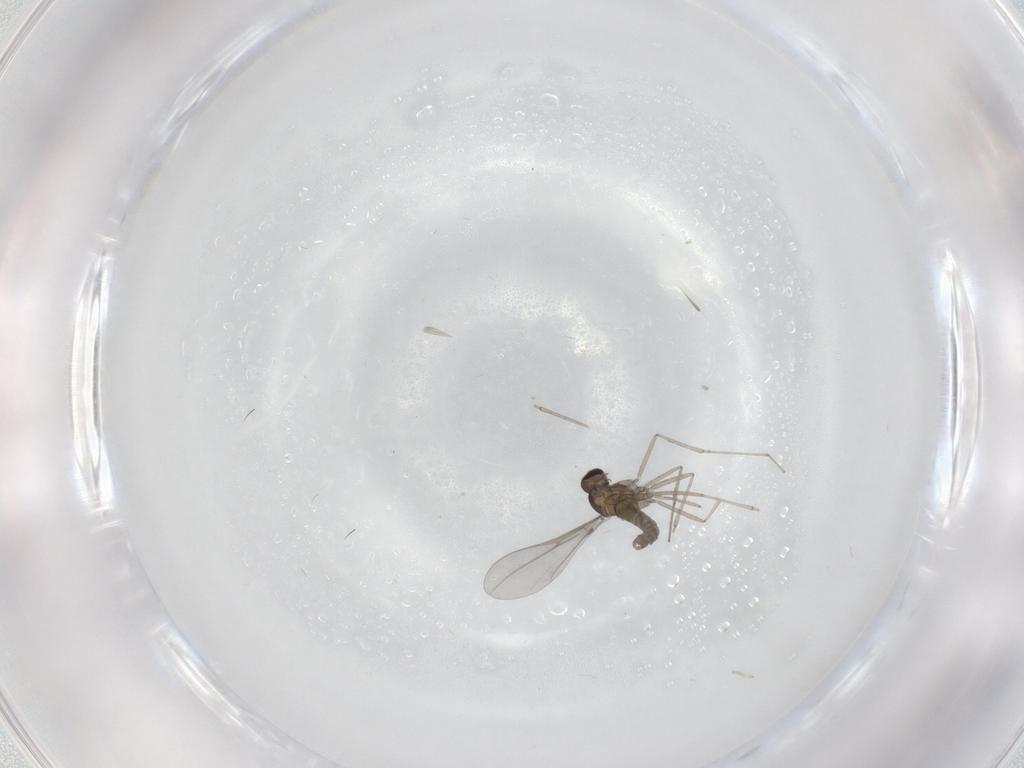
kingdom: Animalia
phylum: Arthropoda
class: Insecta
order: Diptera
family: Cecidomyiidae
